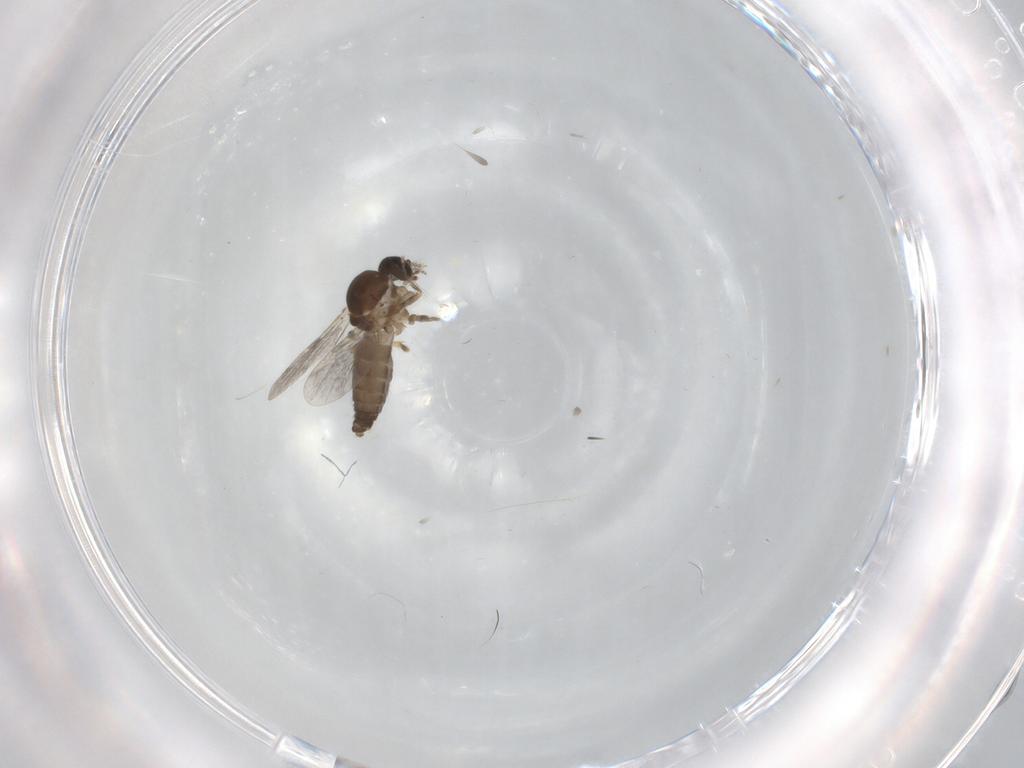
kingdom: Animalia
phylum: Arthropoda
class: Insecta
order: Diptera
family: Ceratopogonidae
